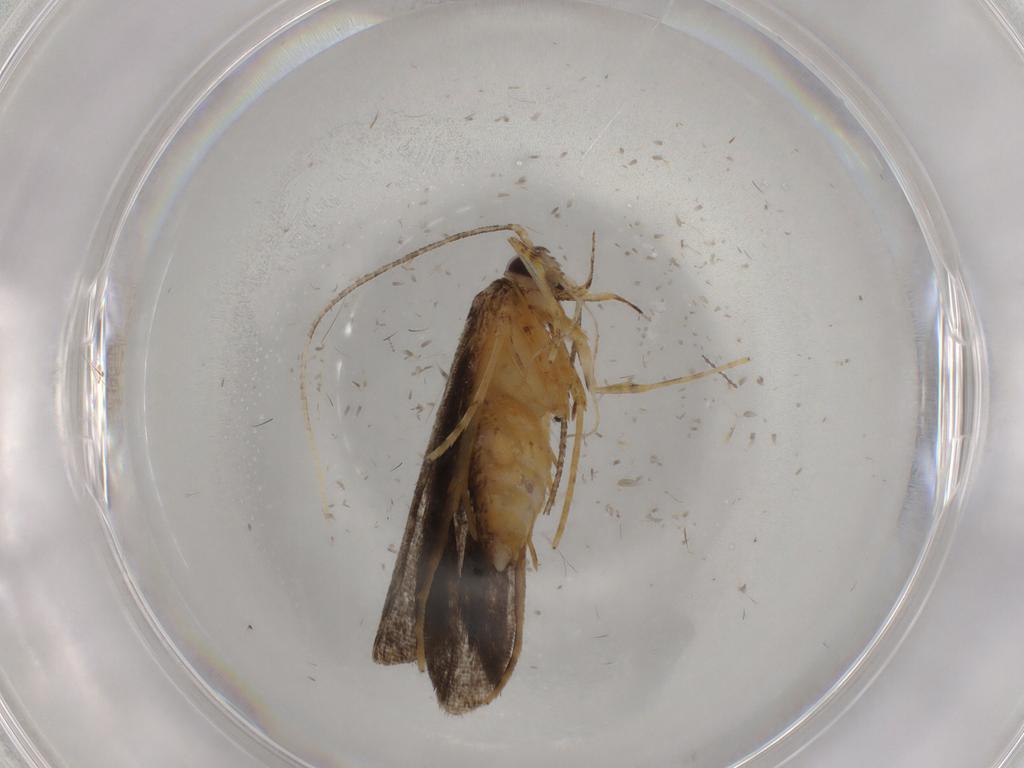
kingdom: Animalia
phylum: Arthropoda
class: Insecta
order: Lepidoptera
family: Cosmopterigidae
